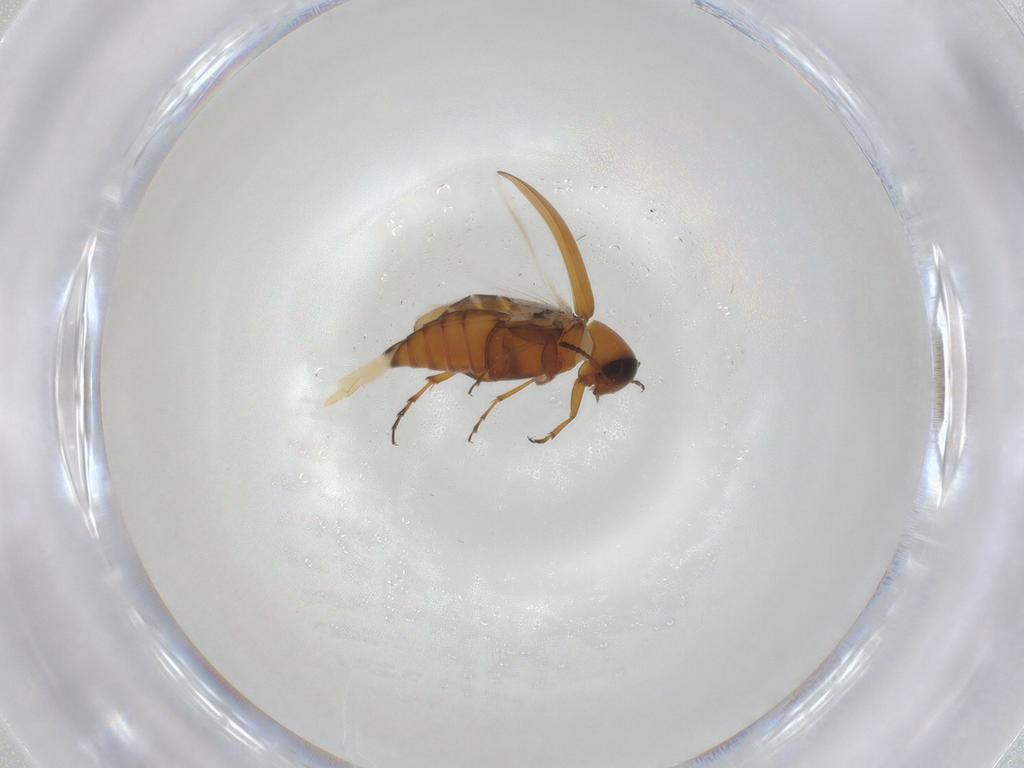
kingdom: Animalia
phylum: Arthropoda
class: Insecta
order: Coleoptera
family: Scraptiidae
